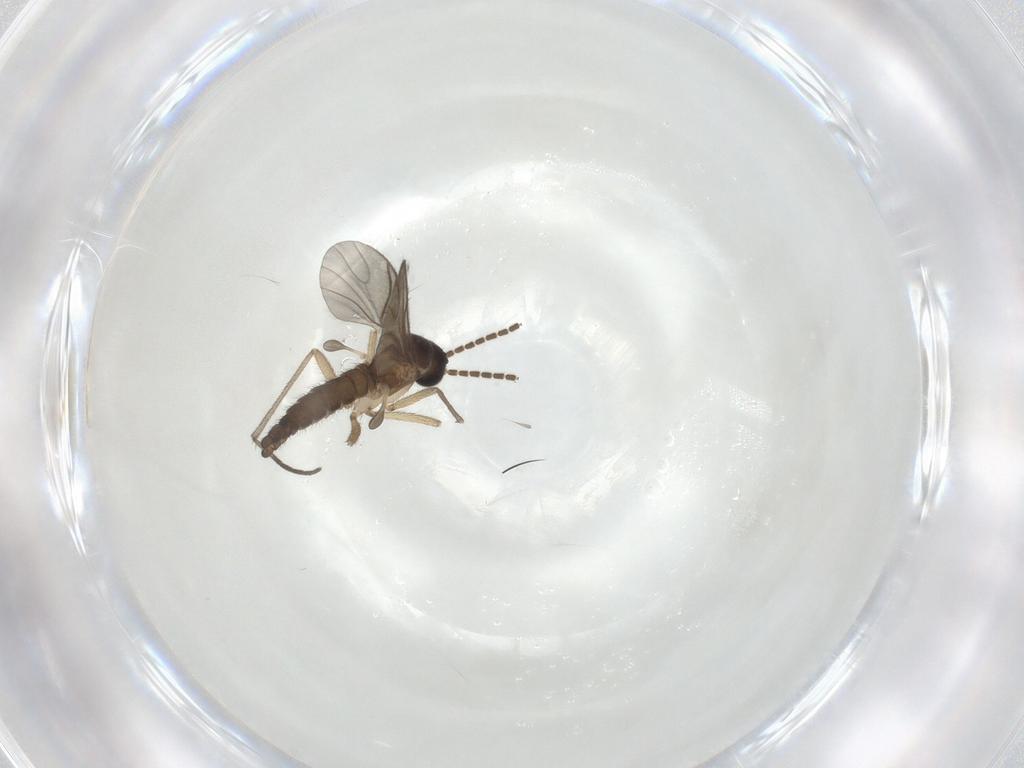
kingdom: Animalia
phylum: Arthropoda
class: Insecta
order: Diptera
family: Sciaridae
